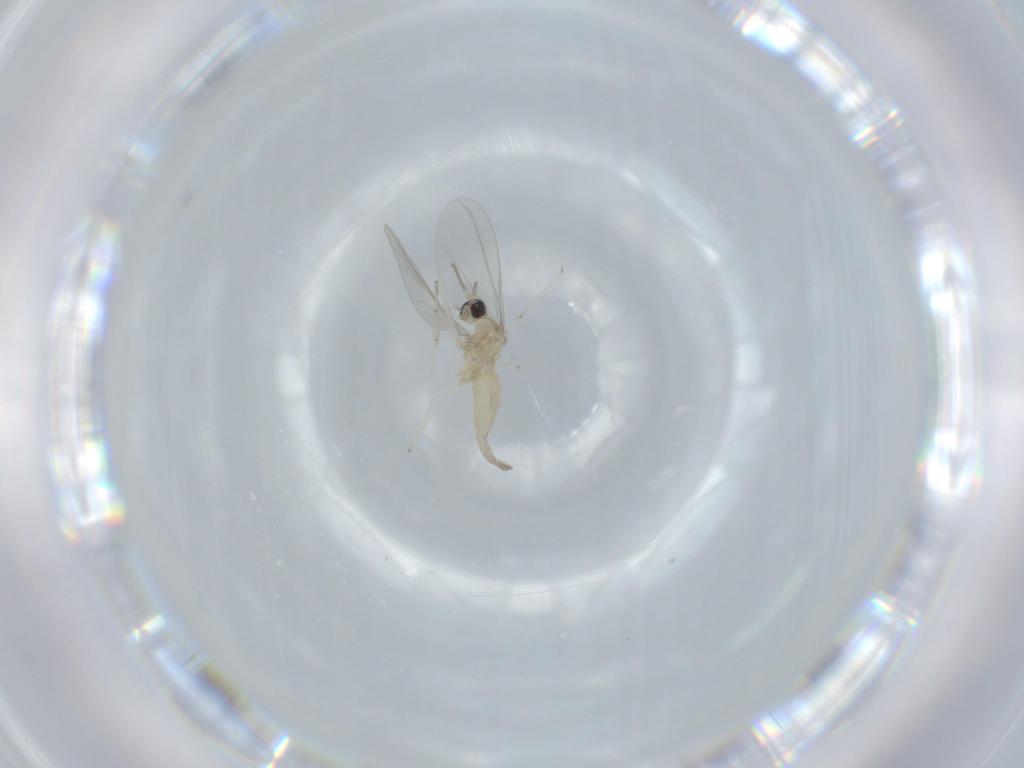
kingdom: Animalia
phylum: Arthropoda
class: Insecta
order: Diptera
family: Cecidomyiidae
